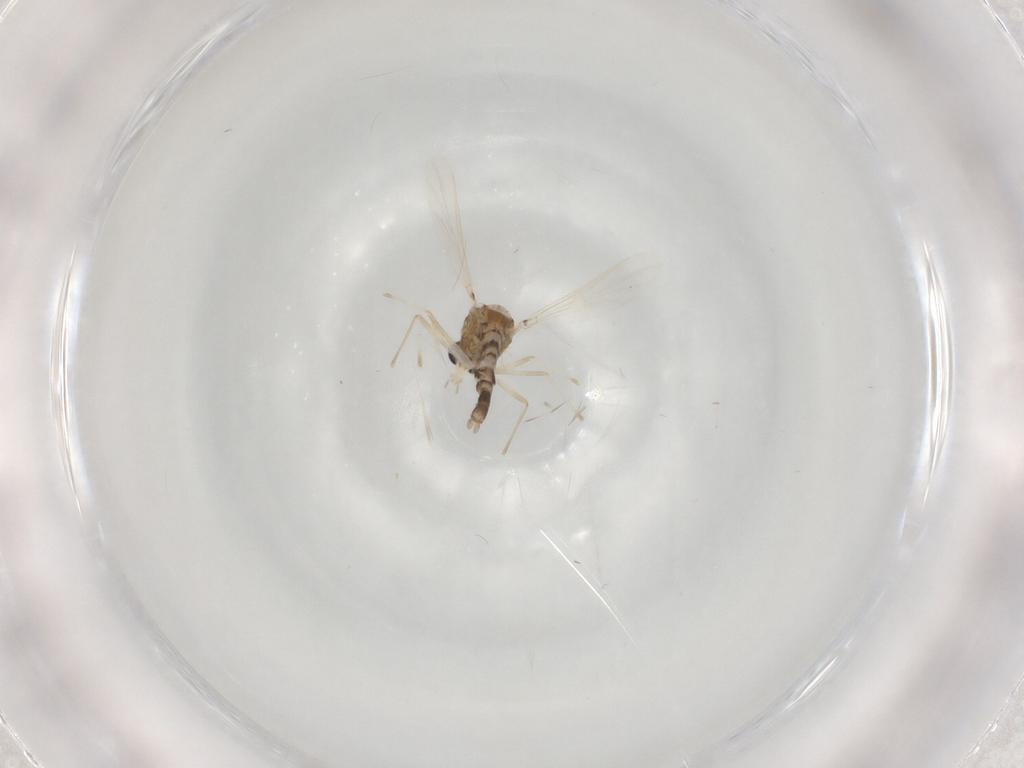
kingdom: Animalia
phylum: Arthropoda
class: Insecta
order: Diptera
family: Chironomidae
